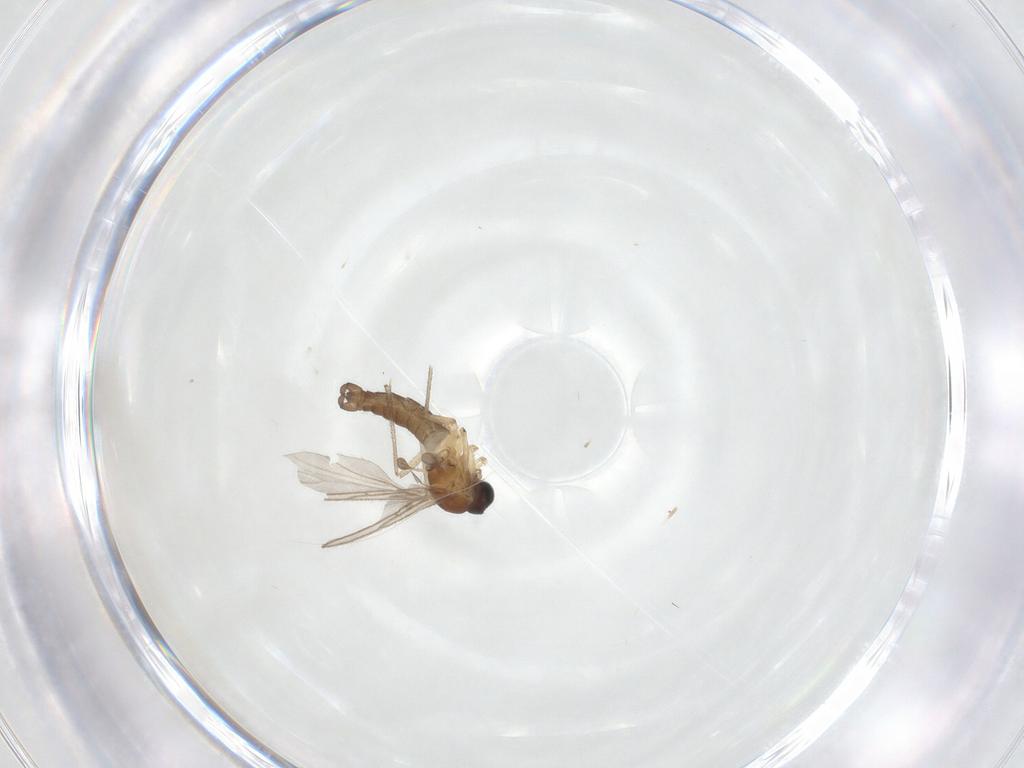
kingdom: Animalia
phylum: Arthropoda
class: Insecta
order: Diptera
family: Sciaridae
